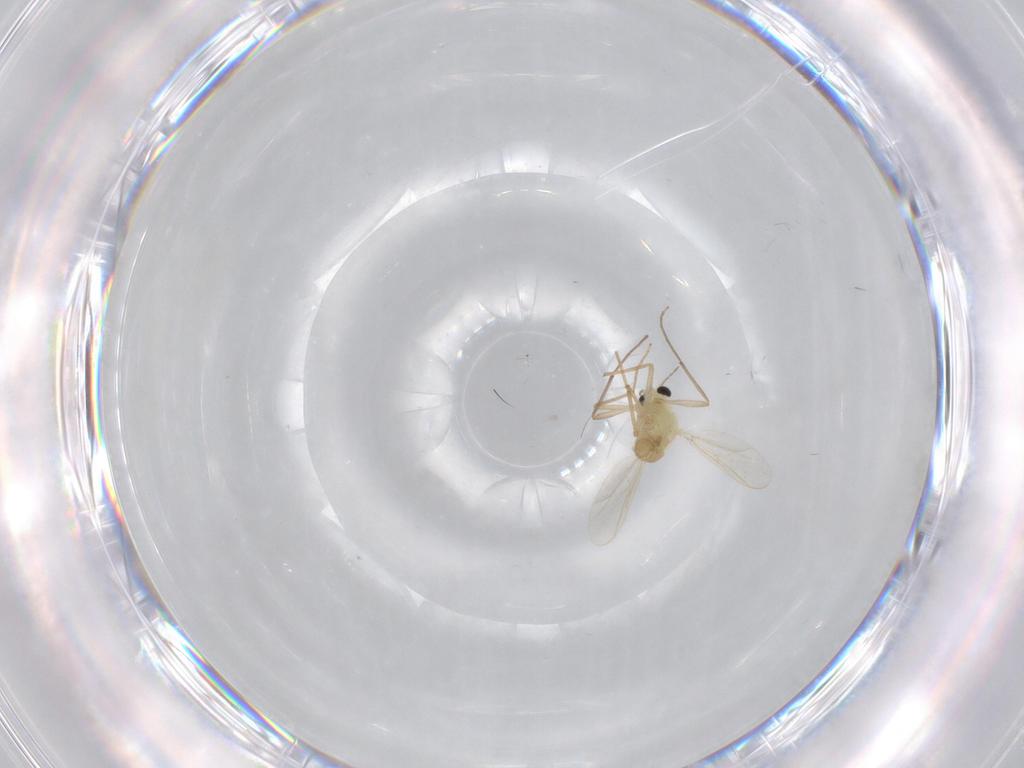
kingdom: Animalia
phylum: Arthropoda
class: Insecta
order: Diptera
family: Chironomidae
